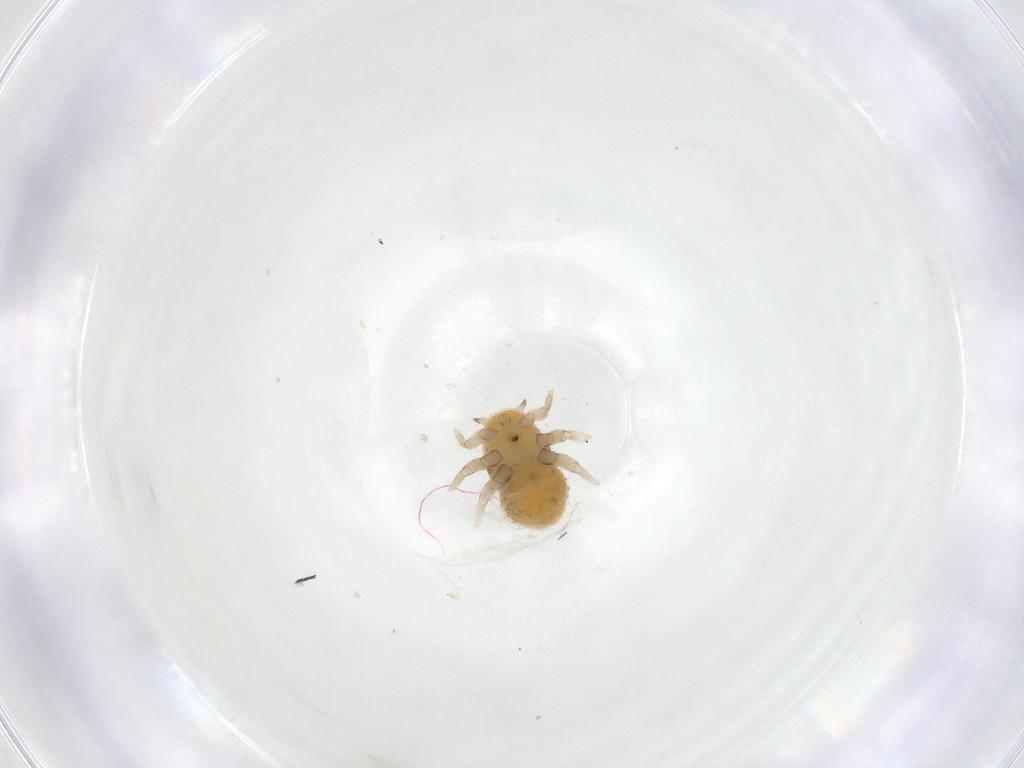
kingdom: Animalia
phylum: Arthropoda
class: Insecta
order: Hemiptera
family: Triozidae
